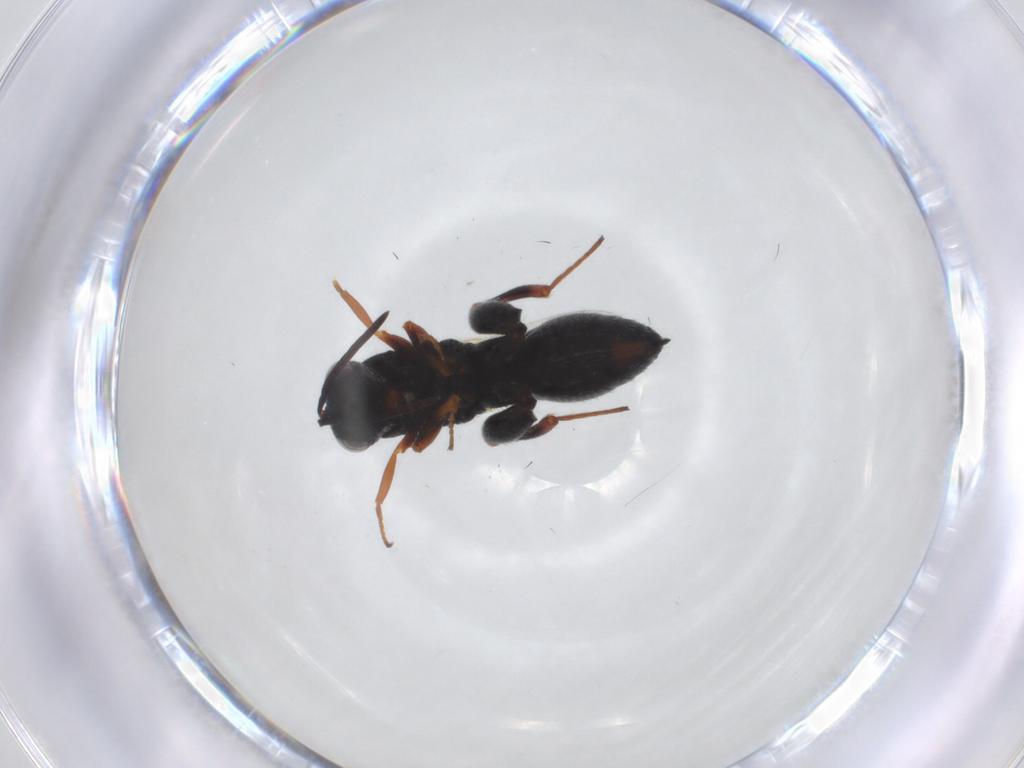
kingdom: Animalia
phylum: Arthropoda
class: Insecta
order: Hymenoptera
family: Chalcididae
